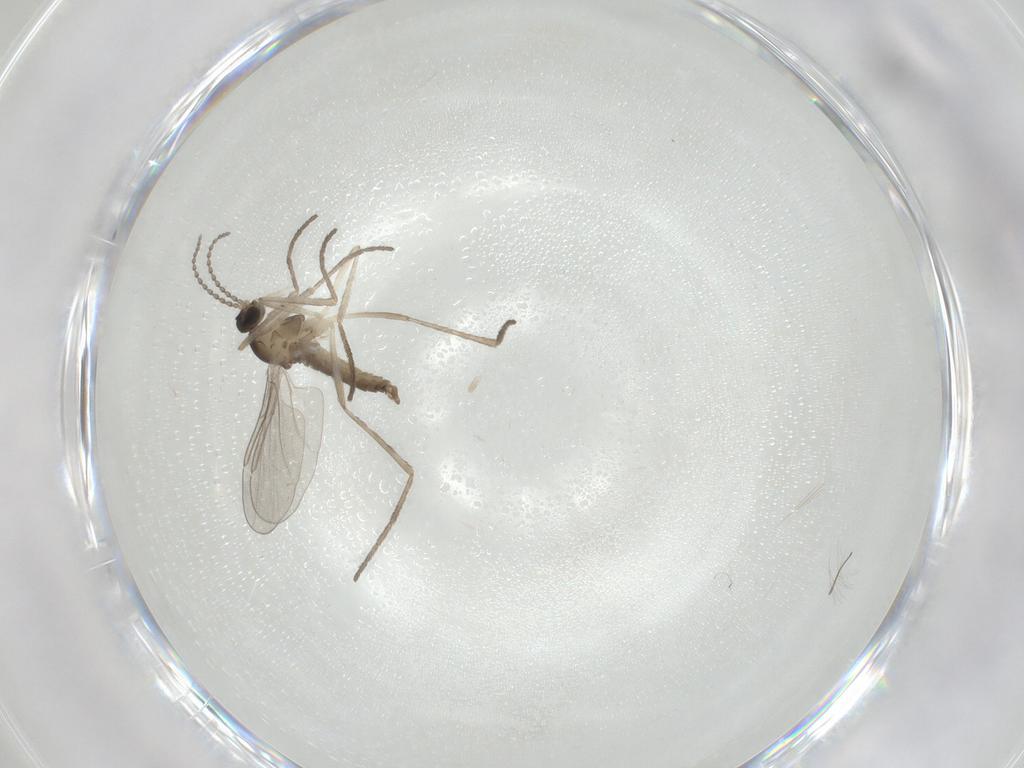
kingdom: Animalia
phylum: Arthropoda
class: Insecta
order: Diptera
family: Cecidomyiidae
